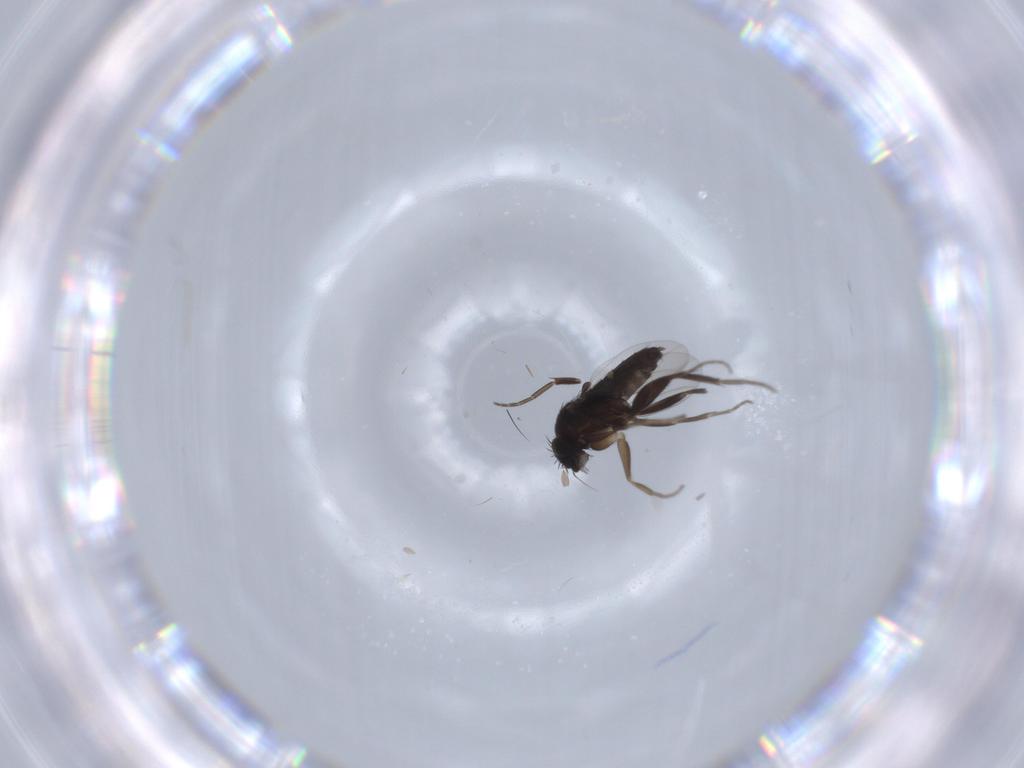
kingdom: Animalia
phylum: Arthropoda
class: Insecta
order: Diptera
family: Phoridae
